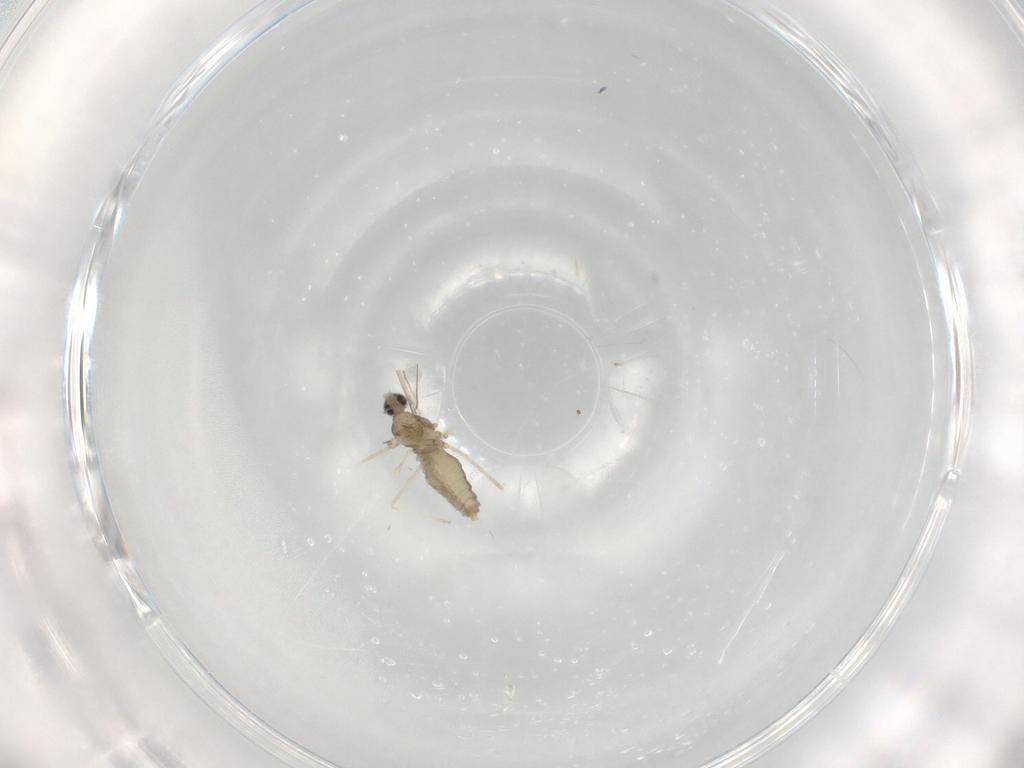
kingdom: Animalia
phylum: Arthropoda
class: Insecta
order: Diptera
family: Cecidomyiidae
